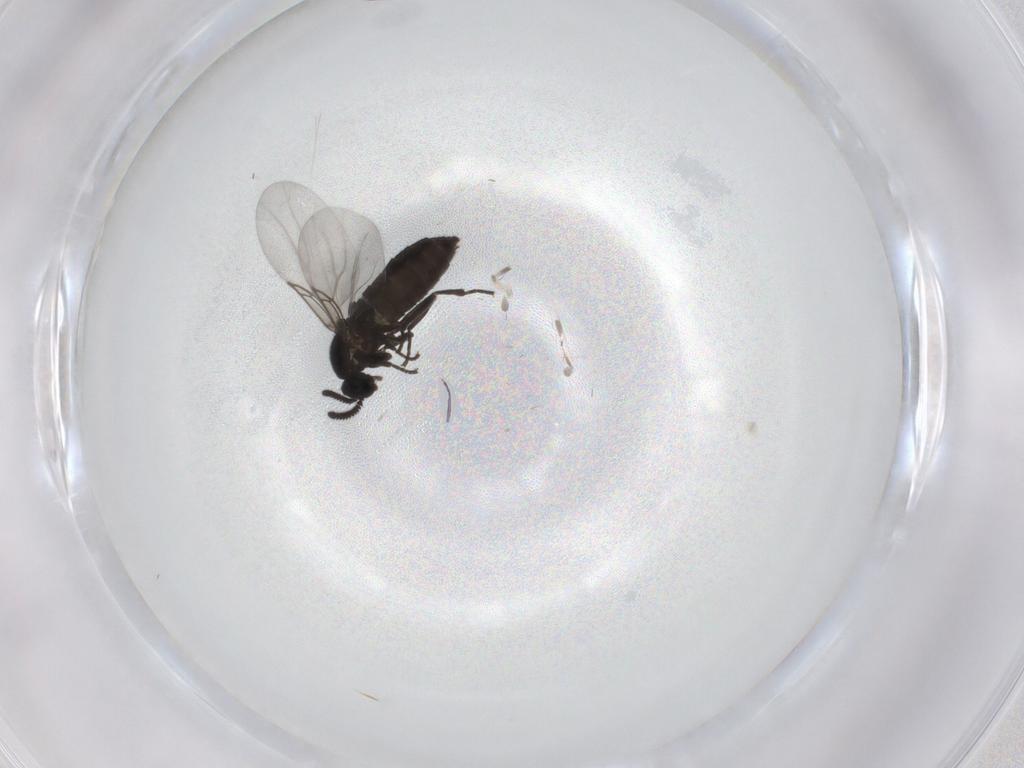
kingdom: Animalia
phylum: Arthropoda
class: Insecta
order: Diptera
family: Scatopsidae
